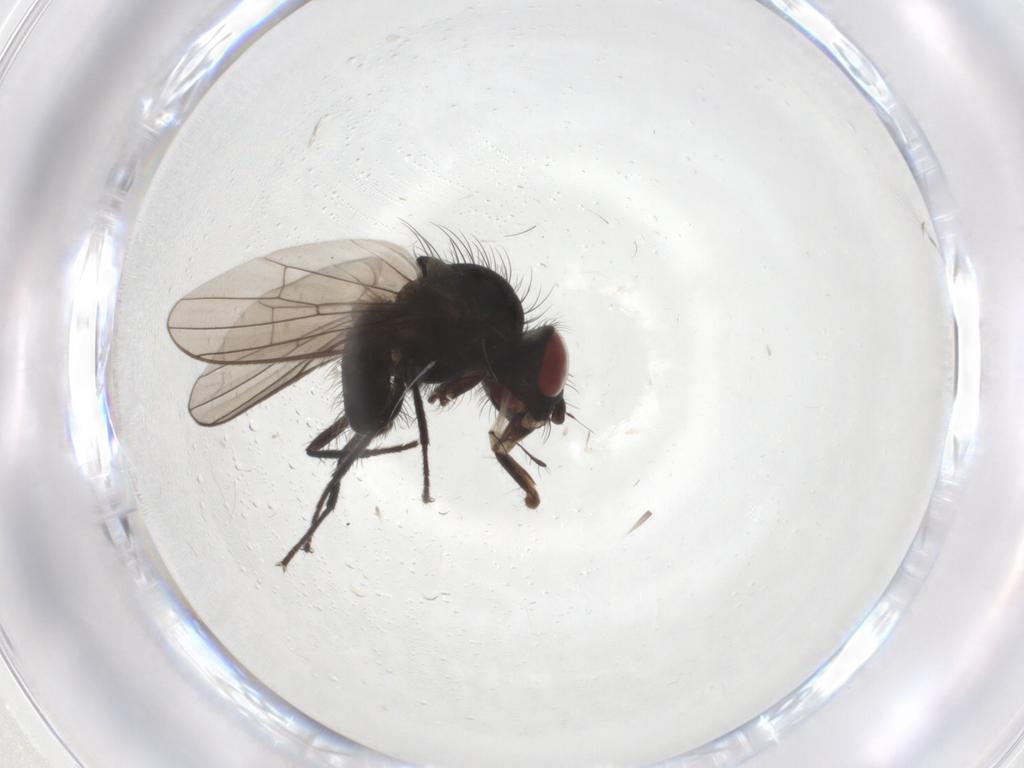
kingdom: Animalia
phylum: Arthropoda
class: Insecta
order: Diptera
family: Anthomyiidae
